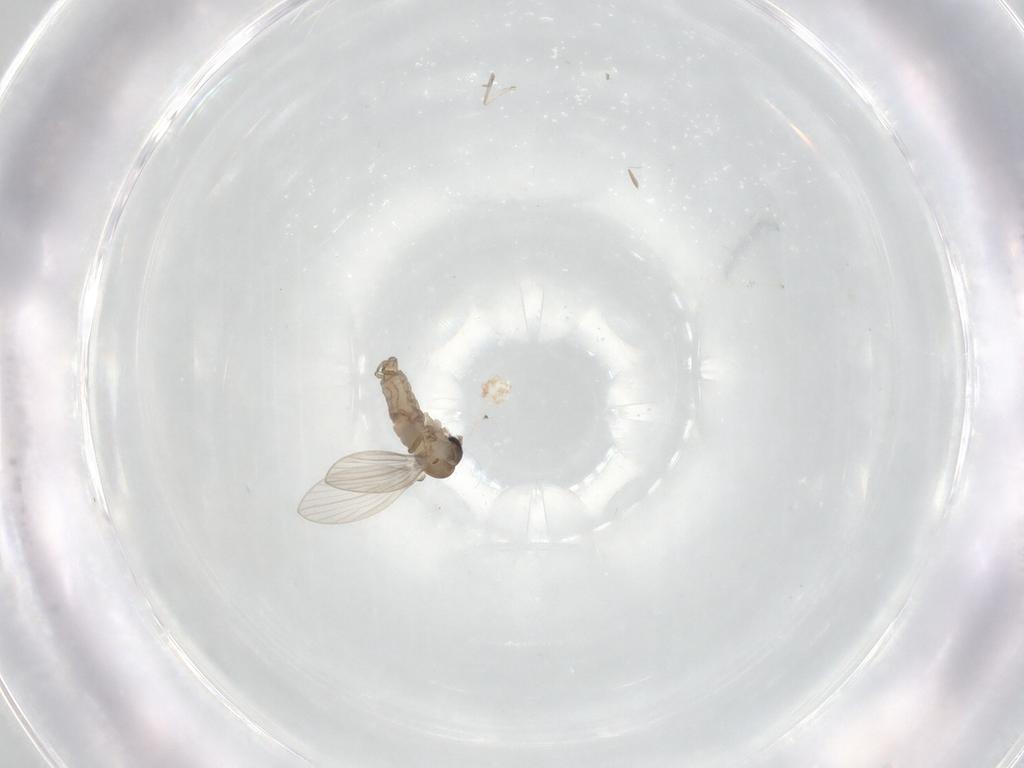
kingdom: Animalia
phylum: Arthropoda
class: Insecta
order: Diptera
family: Psychodidae
